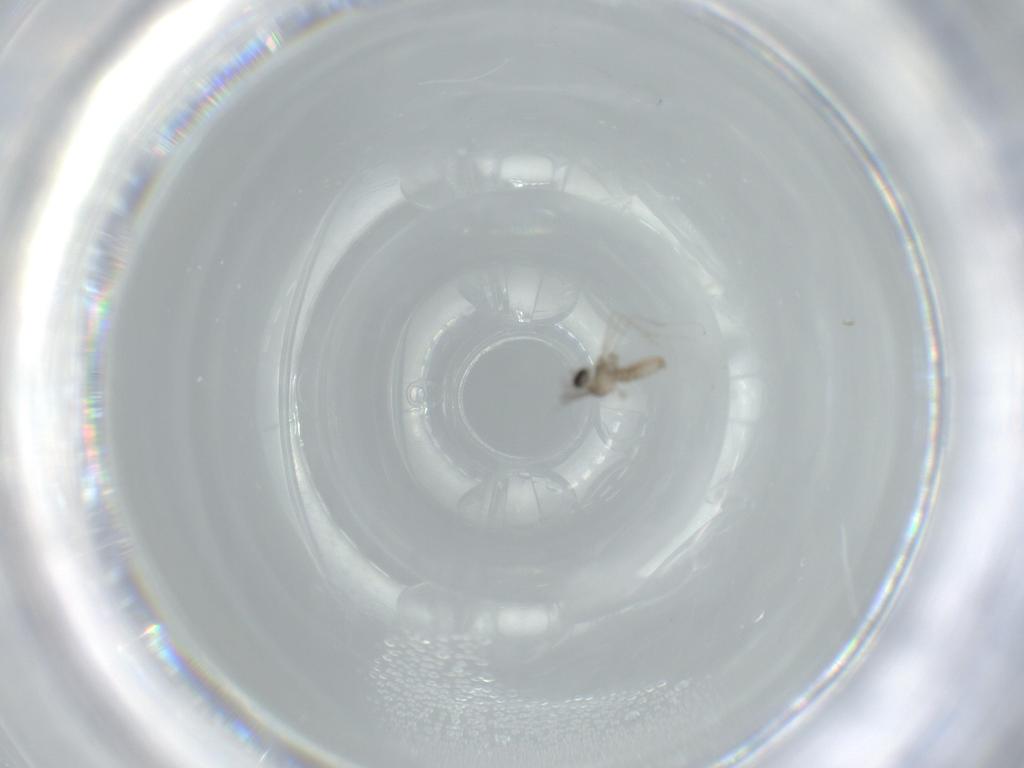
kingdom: Animalia
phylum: Arthropoda
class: Insecta
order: Diptera
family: Cecidomyiidae
